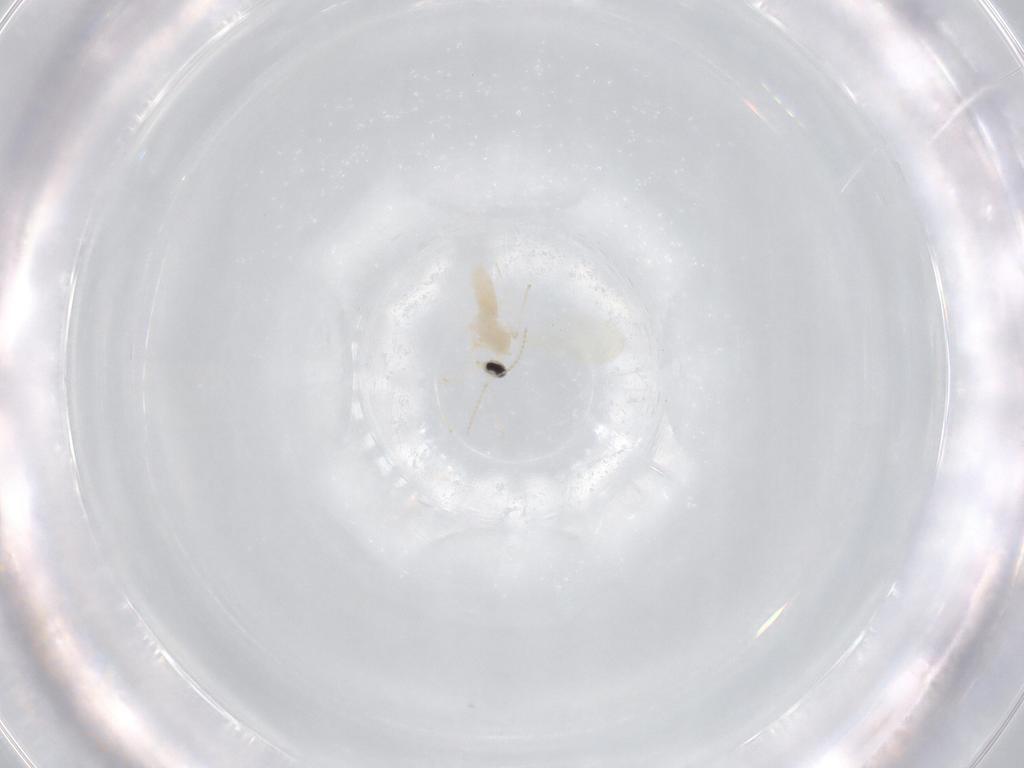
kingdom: Animalia
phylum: Arthropoda
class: Insecta
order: Diptera
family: Cecidomyiidae
